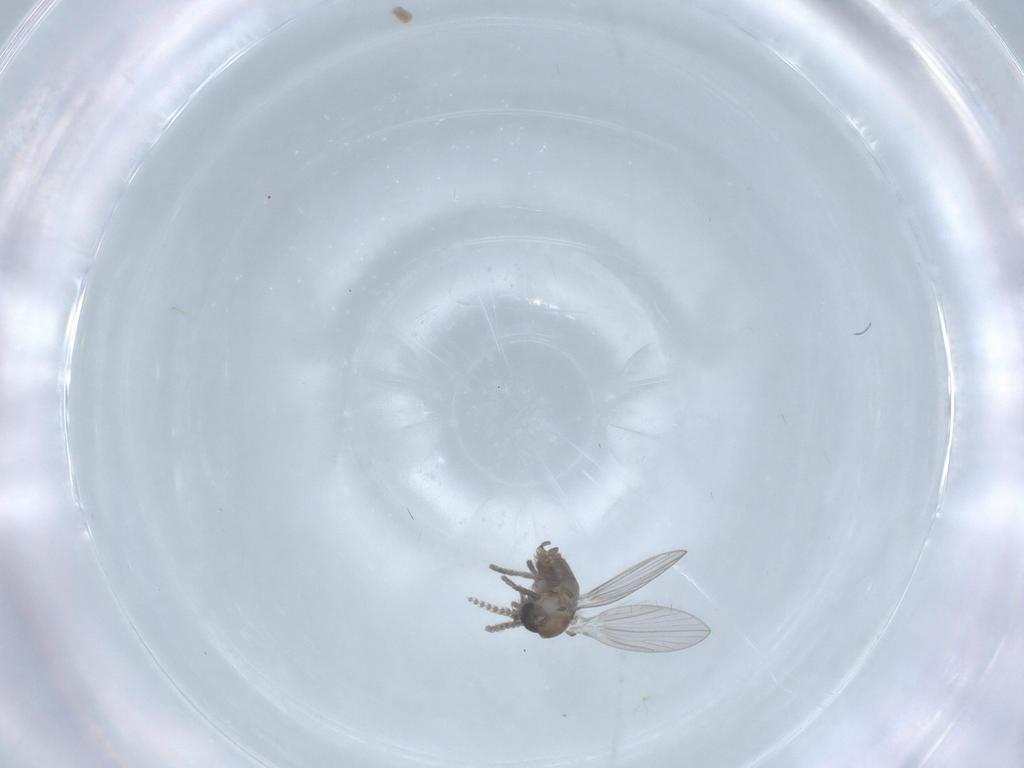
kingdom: Animalia
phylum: Arthropoda
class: Insecta
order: Diptera
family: Psychodidae
